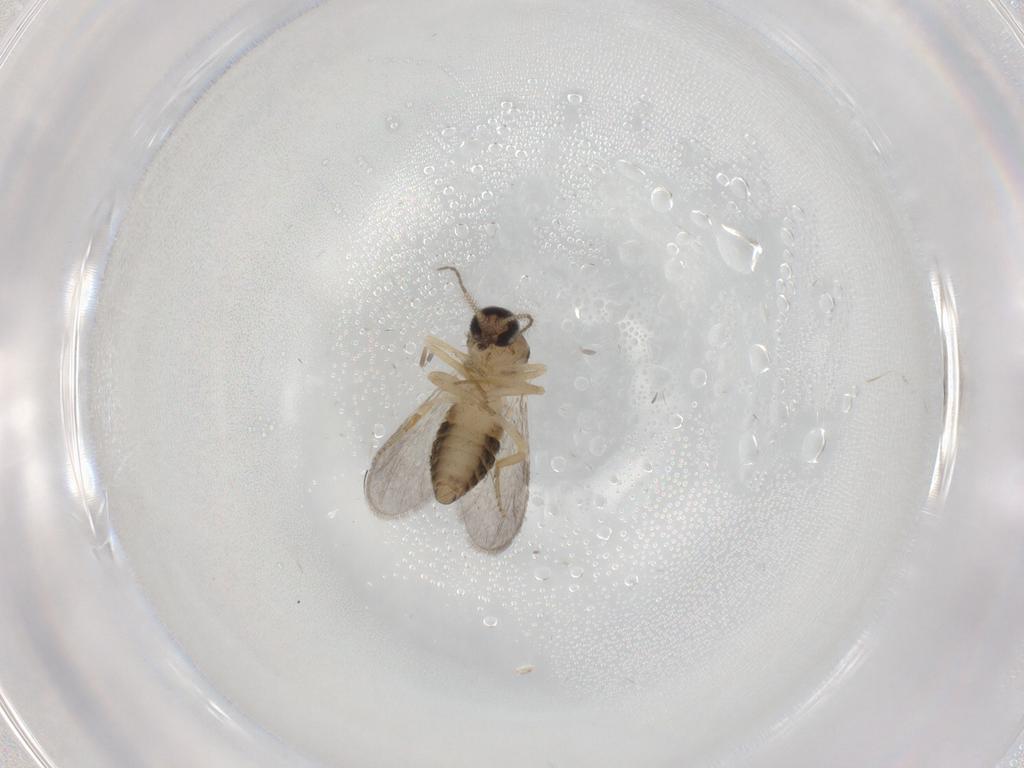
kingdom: Animalia
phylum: Arthropoda
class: Insecta
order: Diptera
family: Ceratopogonidae
